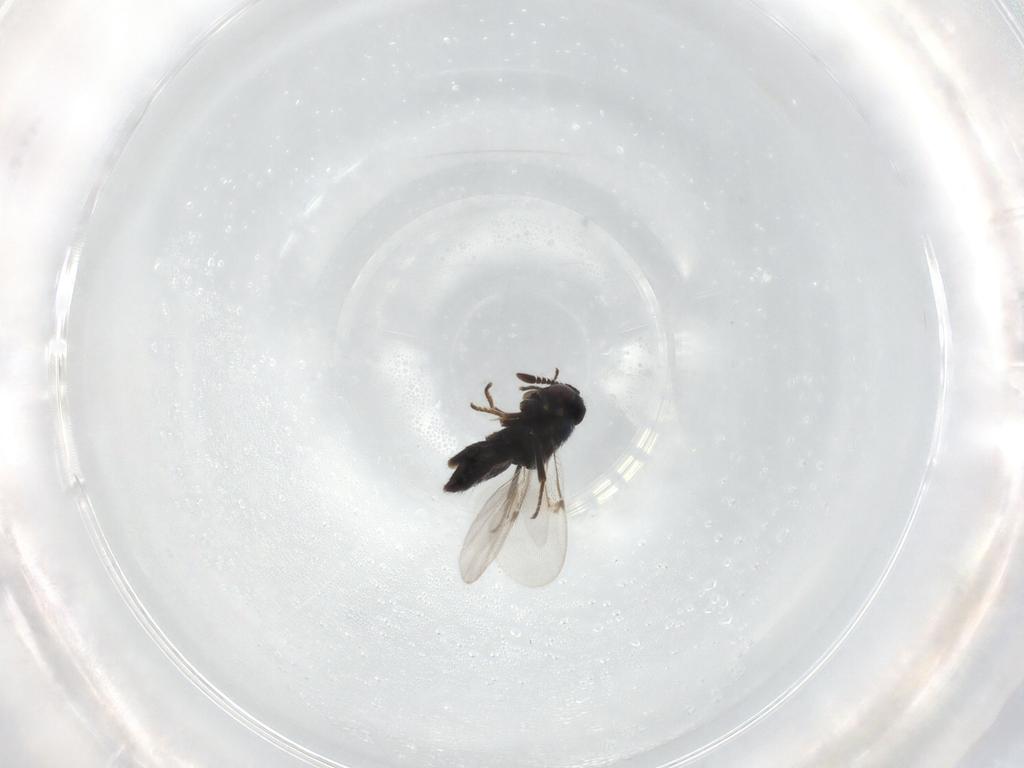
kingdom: Animalia
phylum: Arthropoda
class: Insecta
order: Hymenoptera
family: Encyrtidae
